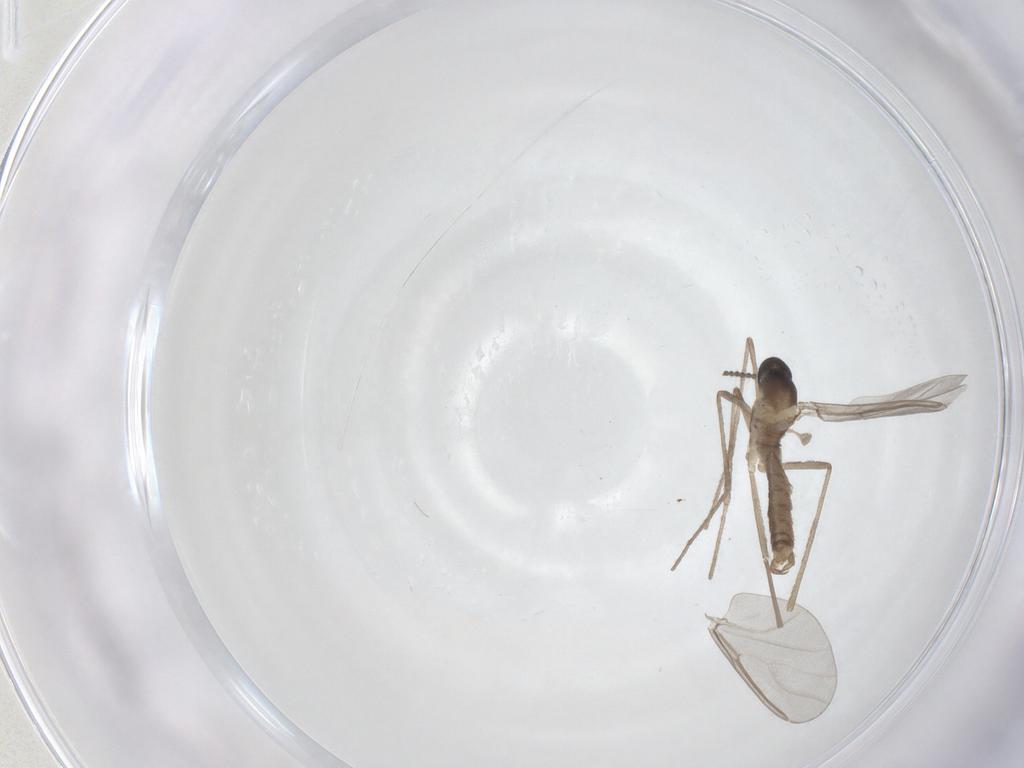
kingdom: Animalia
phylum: Arthropoda
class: Insecta
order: Diptera
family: Cecidomyiidae
